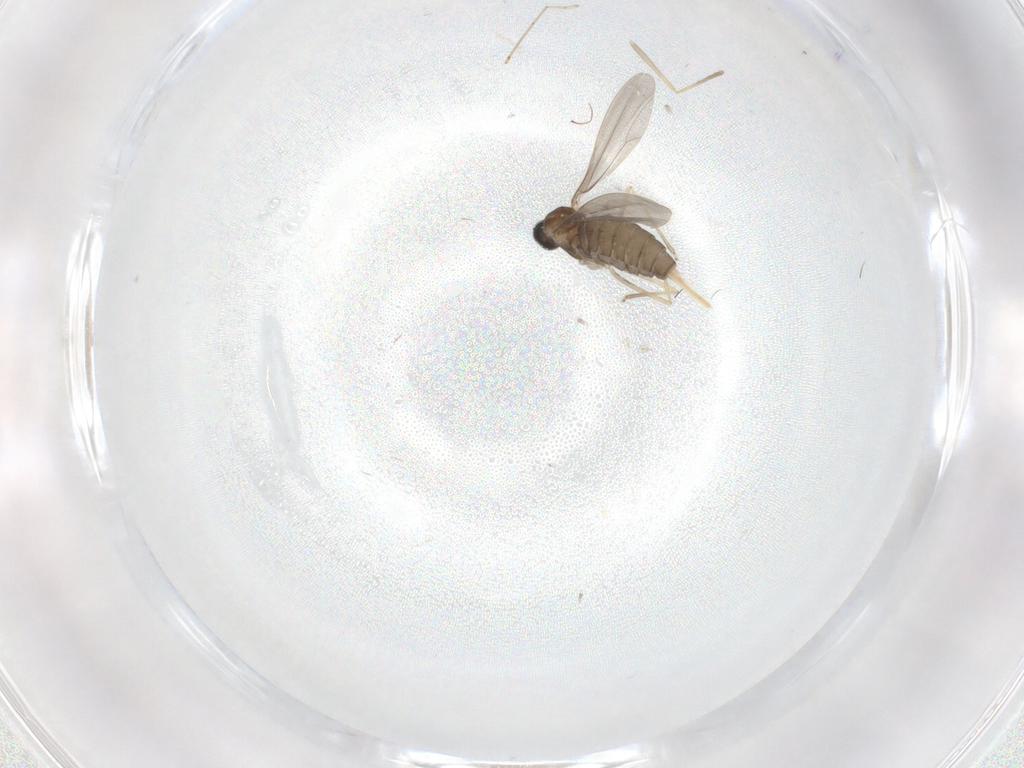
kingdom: Animalia
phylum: Arthropoda
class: Insecta
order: Diptera
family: Cecidomyiidae
